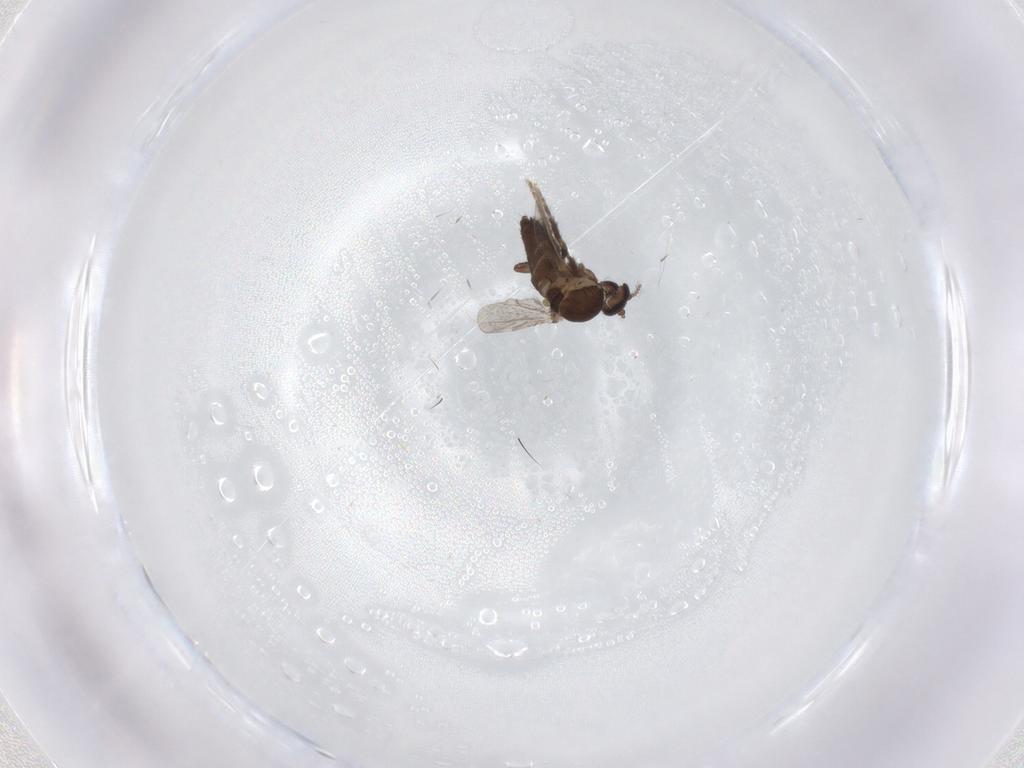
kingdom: Animalia
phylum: Arthropoda
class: Insecta
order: Diptera
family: Ceratopogonidae
